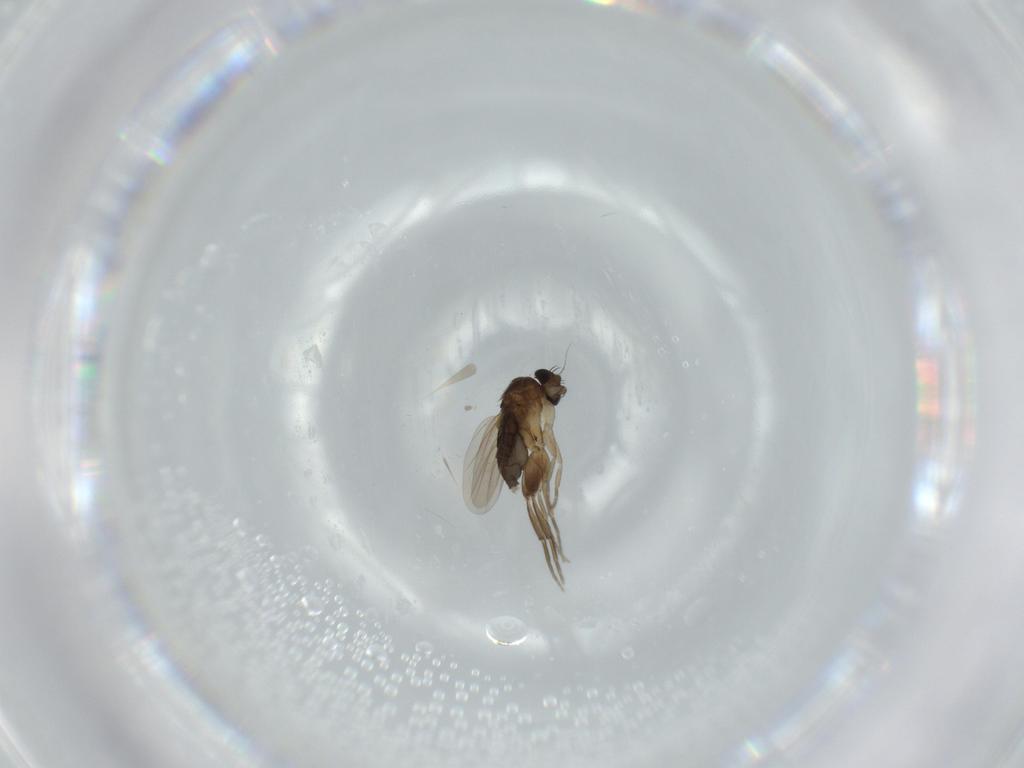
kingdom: Animalia
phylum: Arthropoda
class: Insecta
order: Diptera
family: Phoridae
